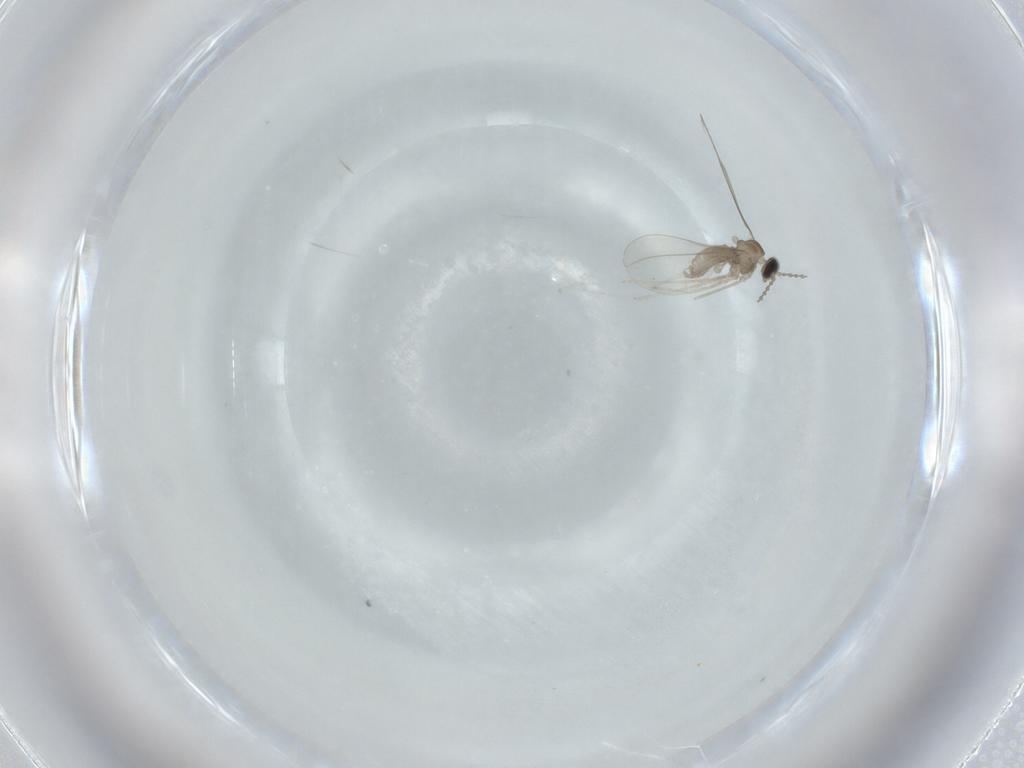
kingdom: Animalia
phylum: Arthropoda
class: Insecta
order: Diptera
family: Cecidomyiidae
